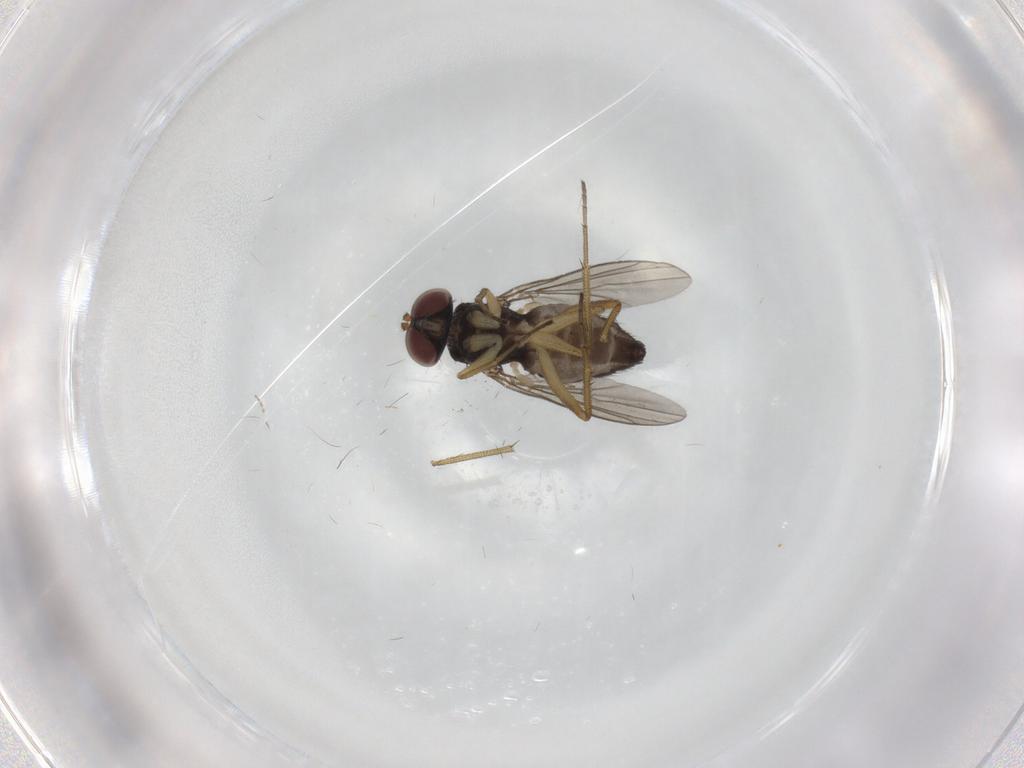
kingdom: Animalia
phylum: Arthropoda
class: Insecta
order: Diptera
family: Dolichopodidae
